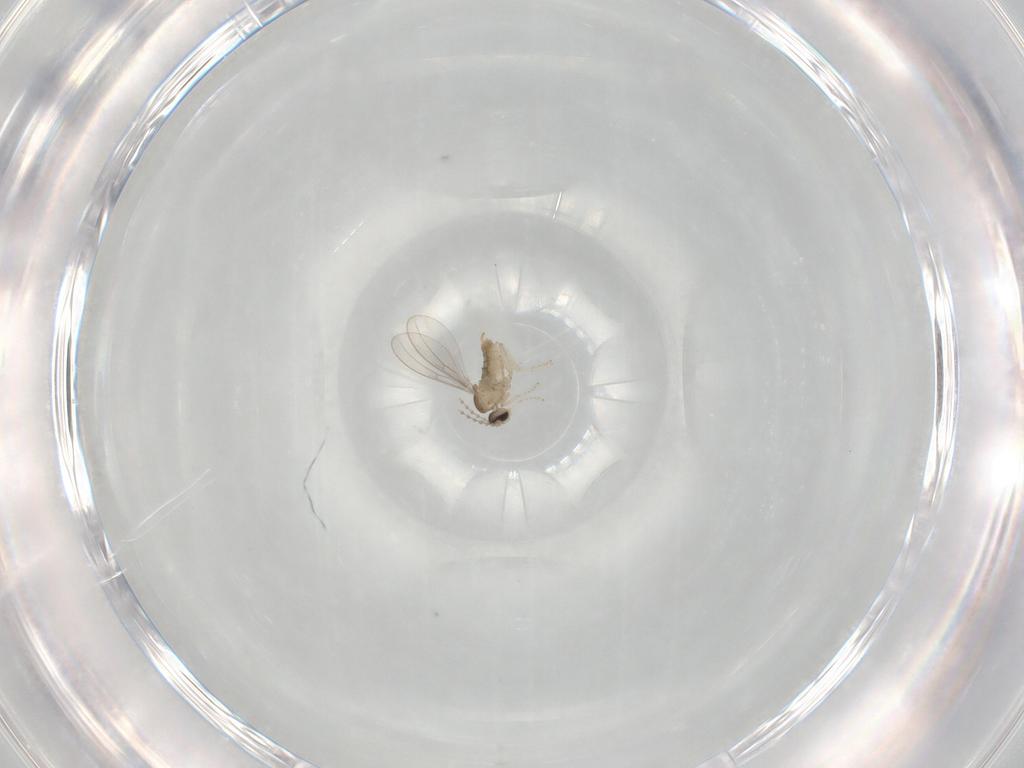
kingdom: Animalia
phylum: Arthropoda
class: Insecta
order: Diptera
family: Cecidomyiidae
